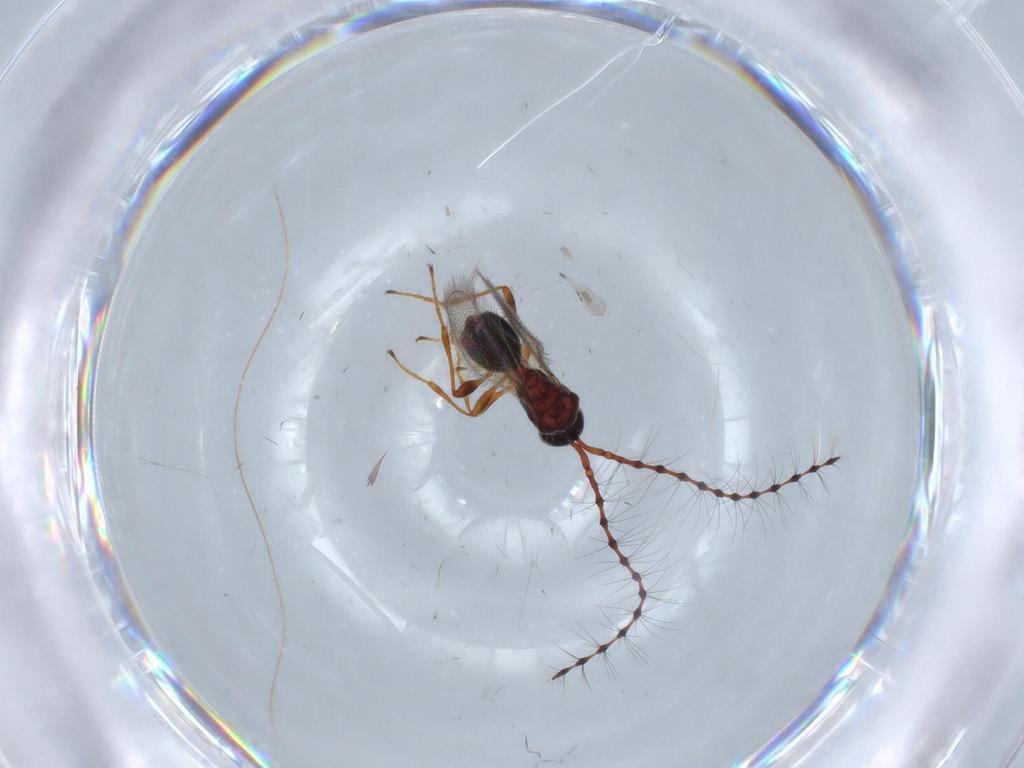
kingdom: Animalia
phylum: Arthropoda
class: Insecta
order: Hymenoptera
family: Diapriidae
